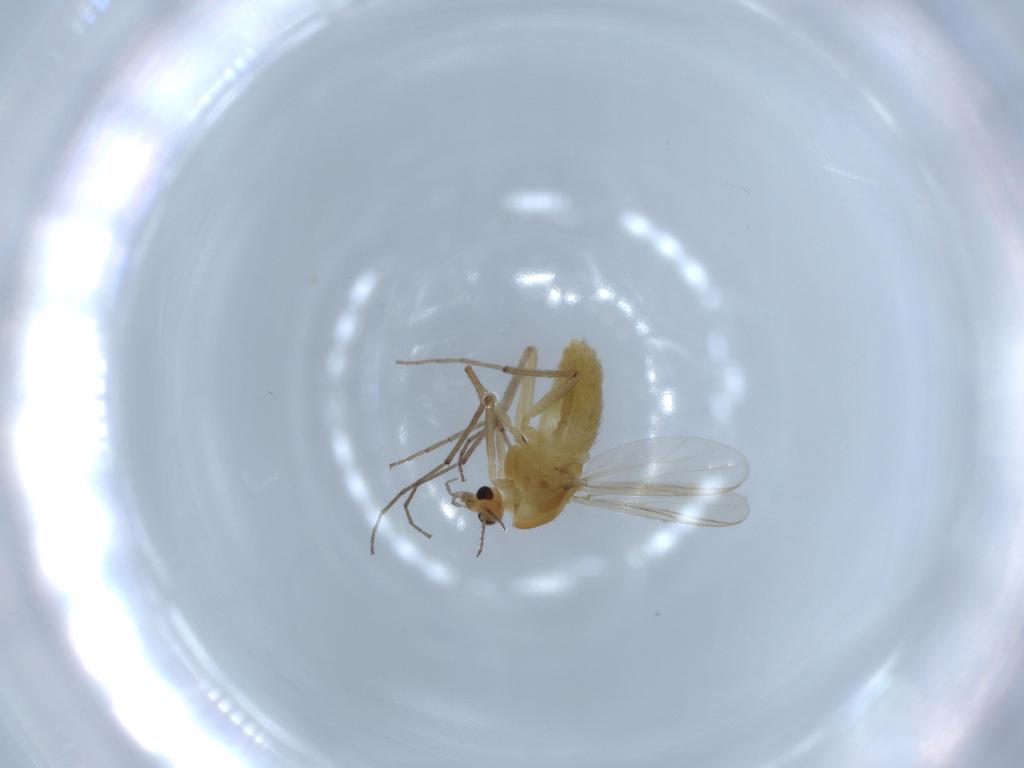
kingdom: Animalia
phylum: Arthropoda
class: Insecta
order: Diptera
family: Chironomidae
